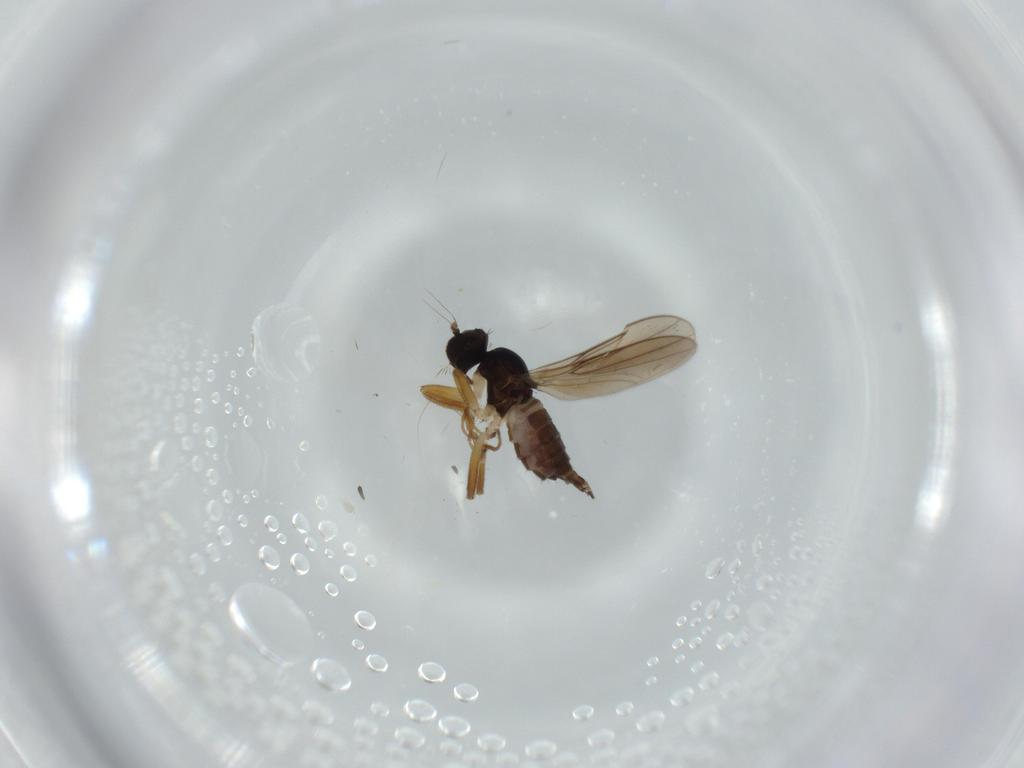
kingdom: Animalia
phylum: Arthropoda
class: Insecta
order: Diptera
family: Hybotidae
